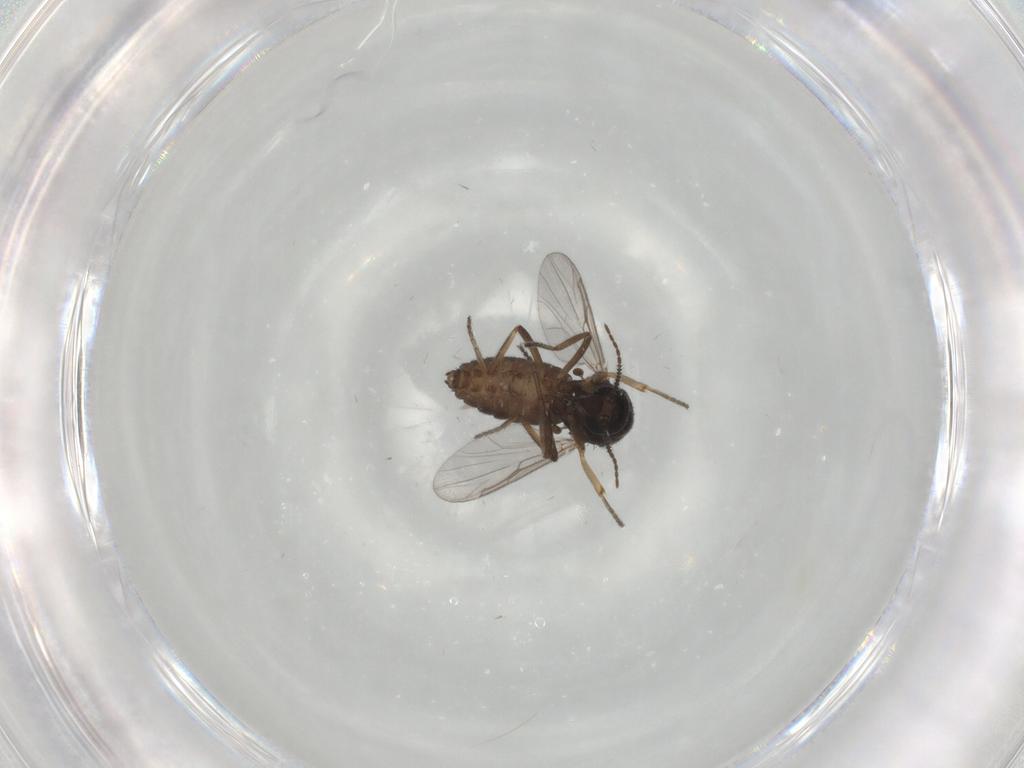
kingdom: Animalia
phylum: Arthropoda
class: Insecta
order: Diptera
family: Ceratopogonidae
